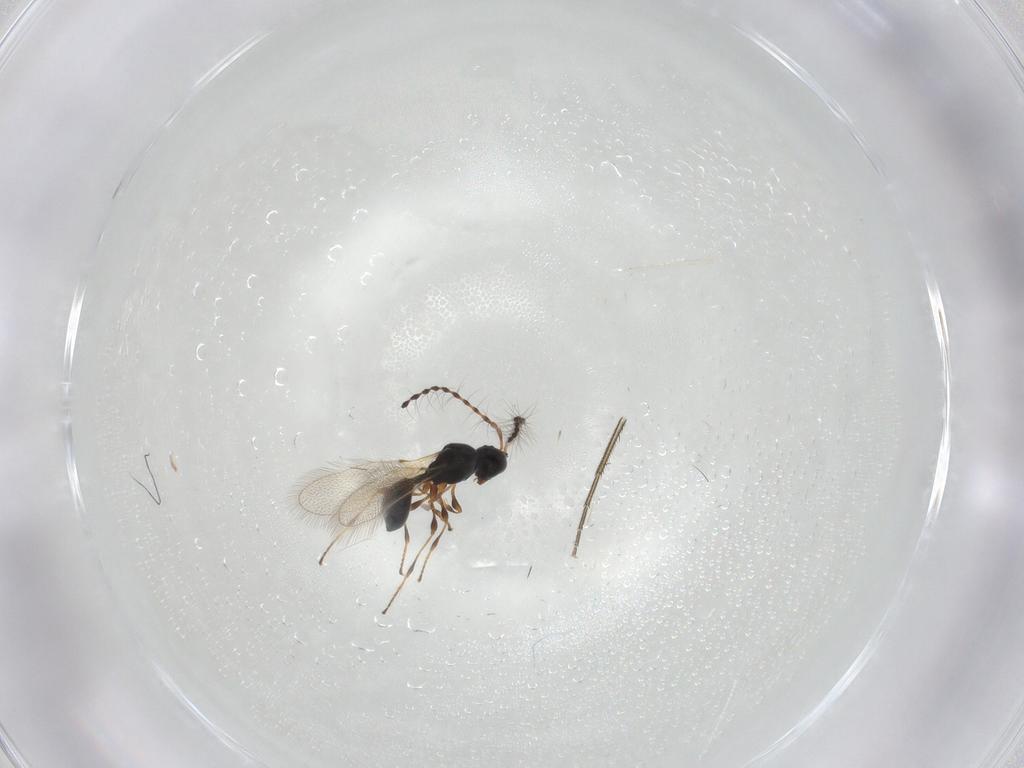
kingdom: Animalia
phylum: Arthropoda
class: Insecta
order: Hymenoptera
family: Diapriidae
